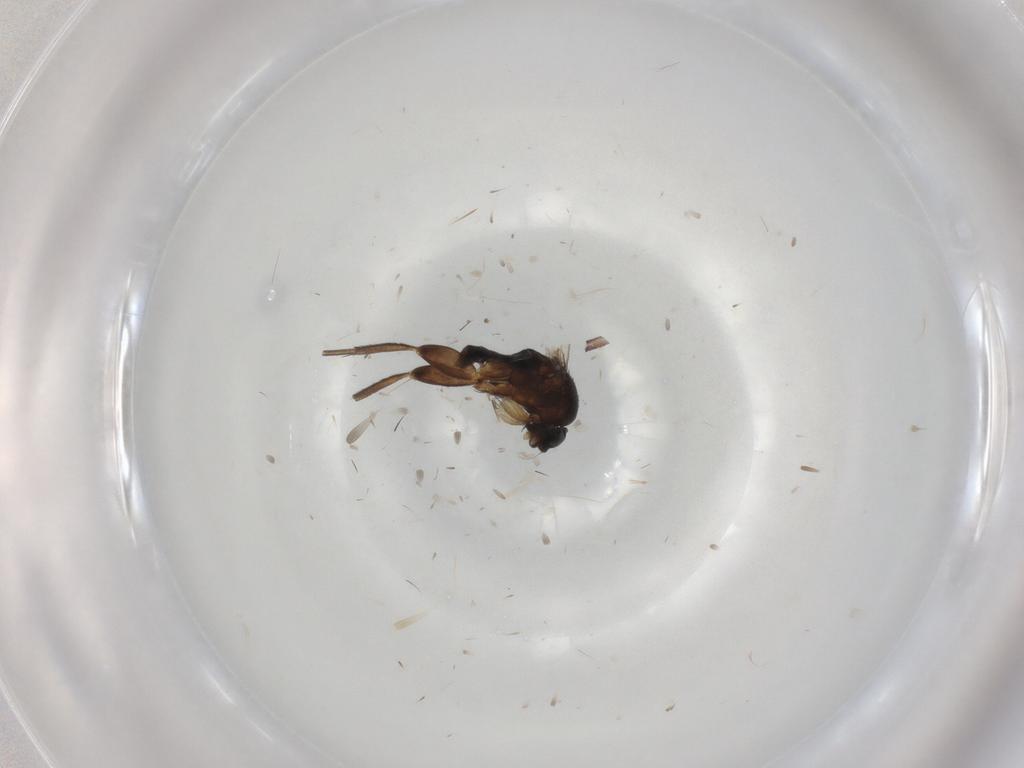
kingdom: Animalia
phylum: Arthropoda
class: Insecta
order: Diptera
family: Phoridae
